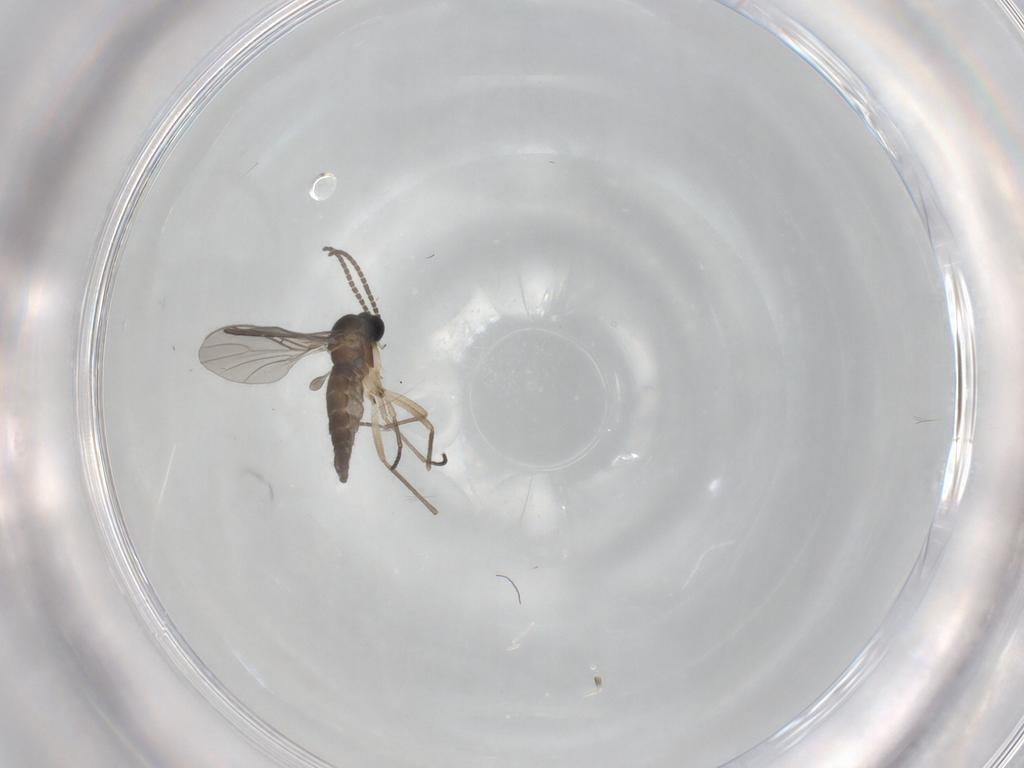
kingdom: Animalia
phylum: Arthropoda
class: Insecta
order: Diptera
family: Sciaridae
